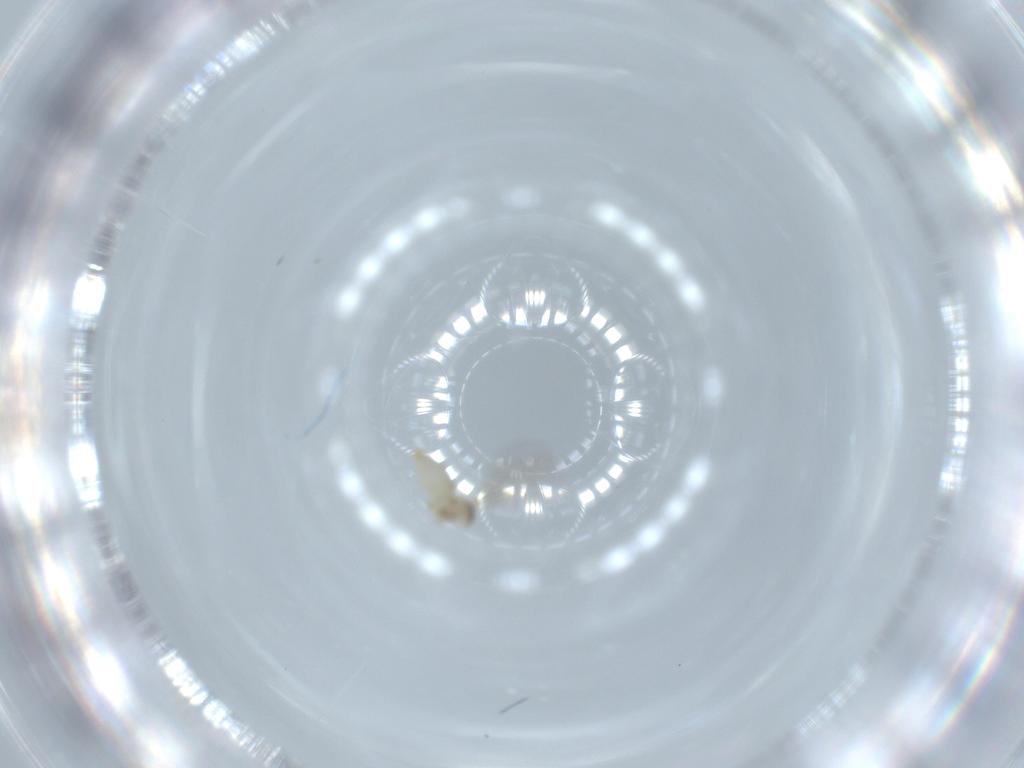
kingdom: Animalia
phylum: Arthropoda
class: Insecta
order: Diptera
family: Cecidomyiidae
